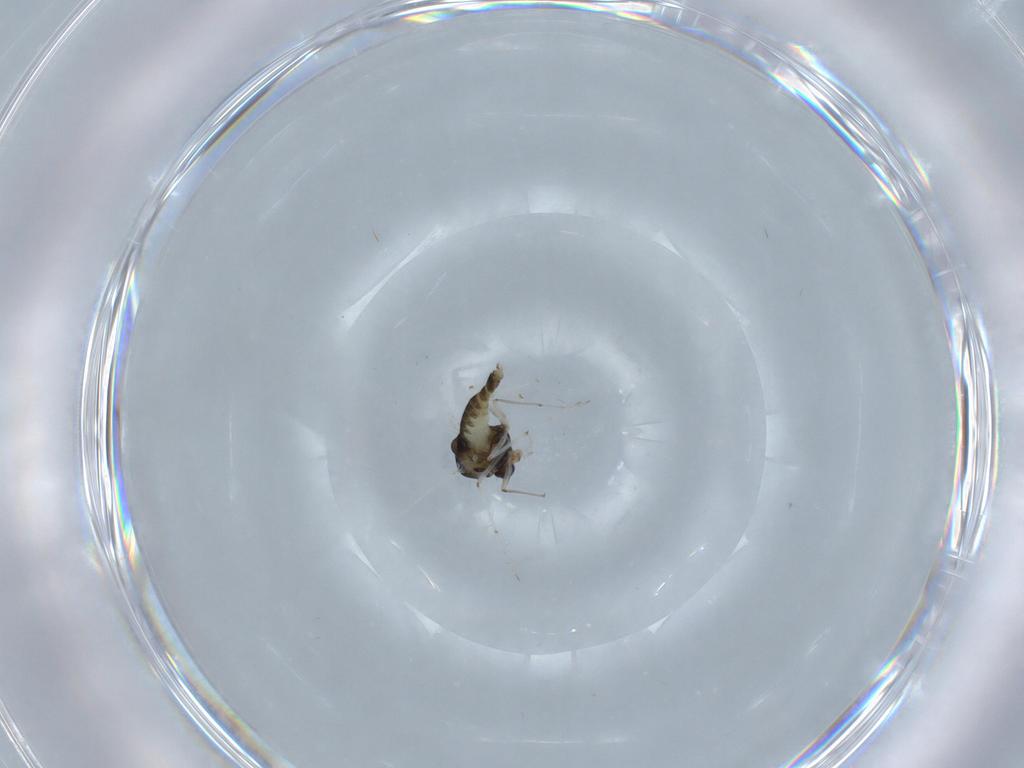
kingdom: Animalia
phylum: Arthropoda
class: Insecta
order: Diptera
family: Chironomidae
